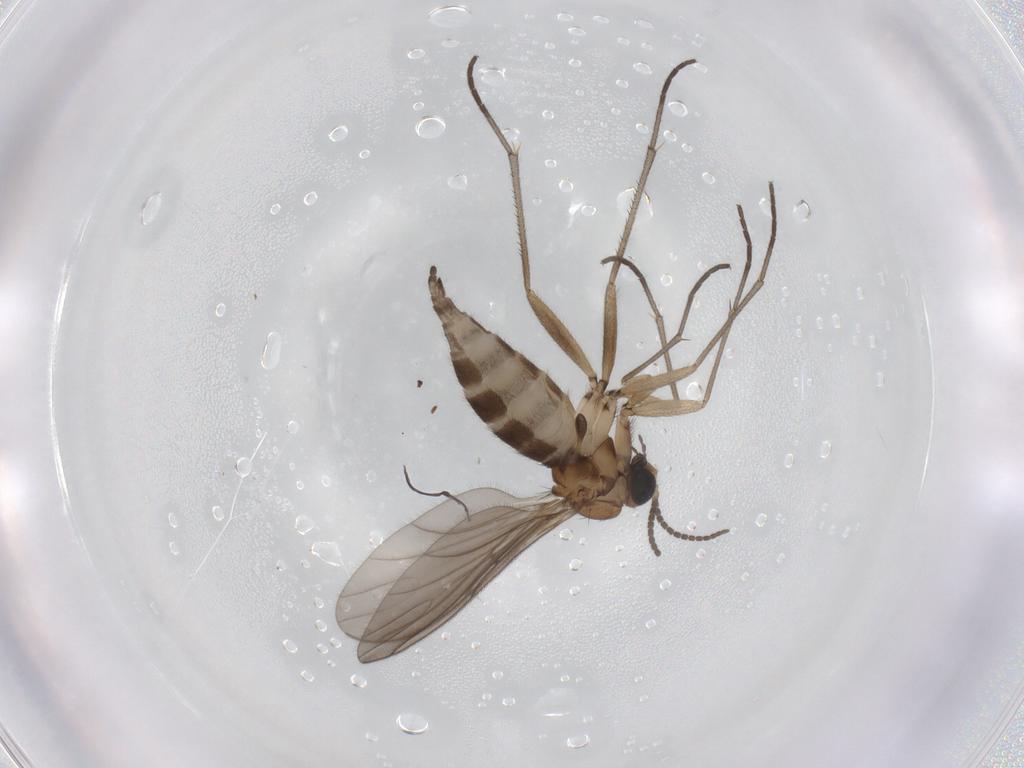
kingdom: Animalia
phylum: Arthropoda
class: Insecta
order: Diptera
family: Sciaridae
